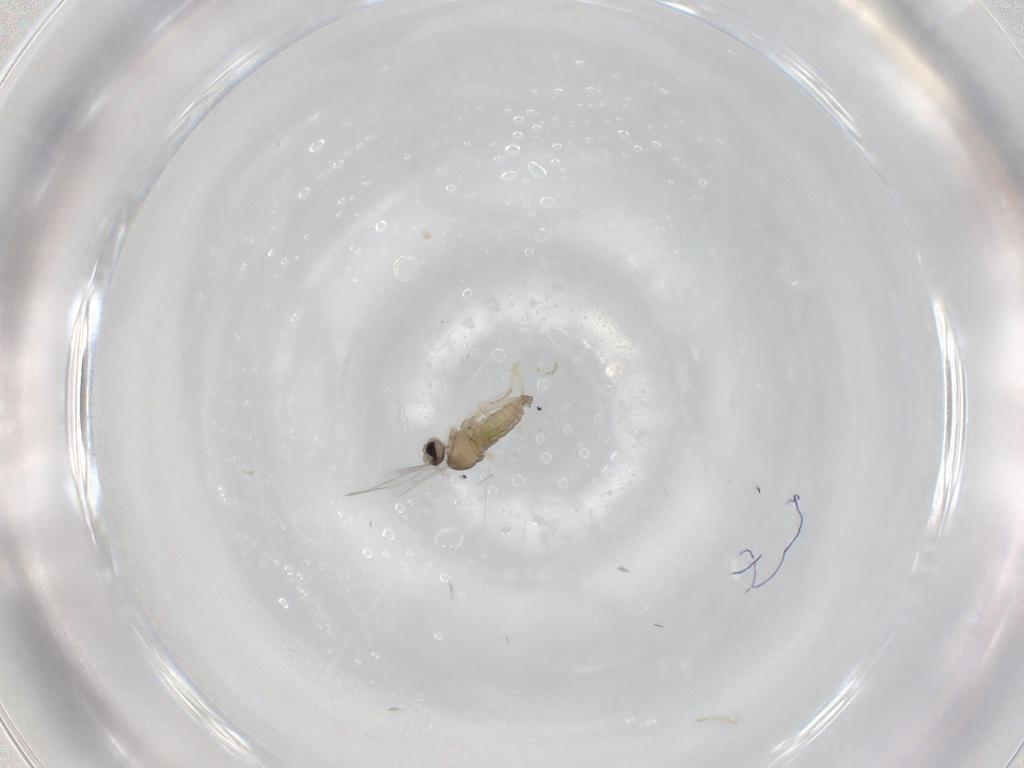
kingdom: Animalia
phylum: Arthropoda
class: Insecta
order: Diptera
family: Cecidomyiidae
